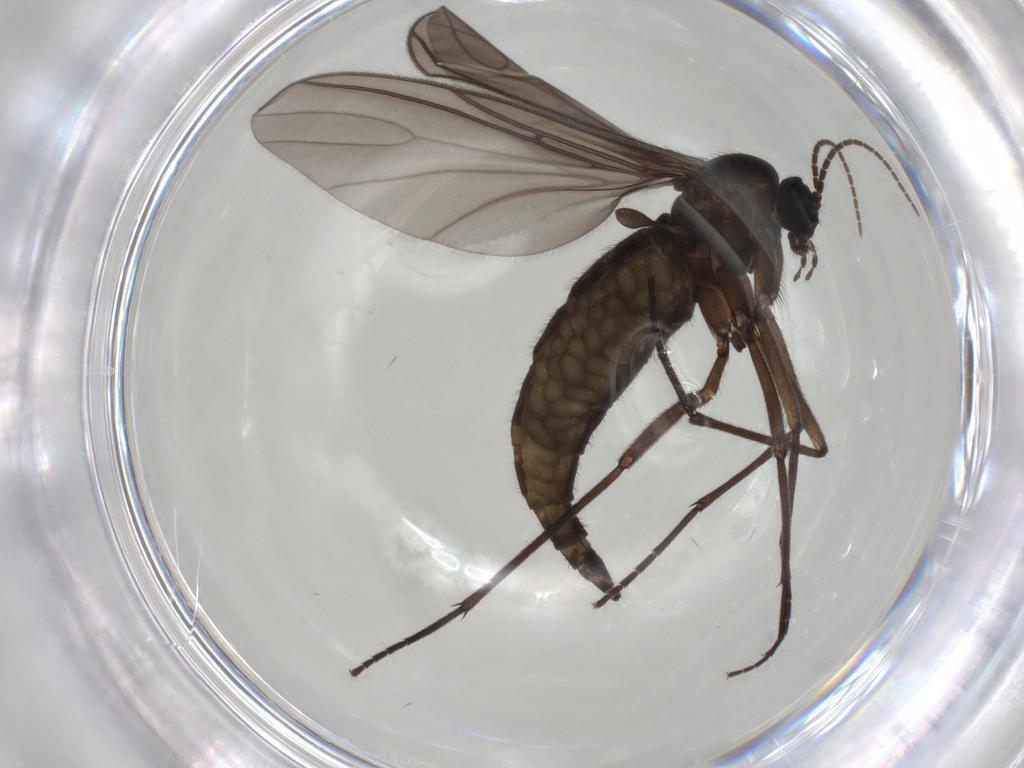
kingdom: Animalia
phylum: Arthropoda
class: Insecta
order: Diptera
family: Sciaridae
